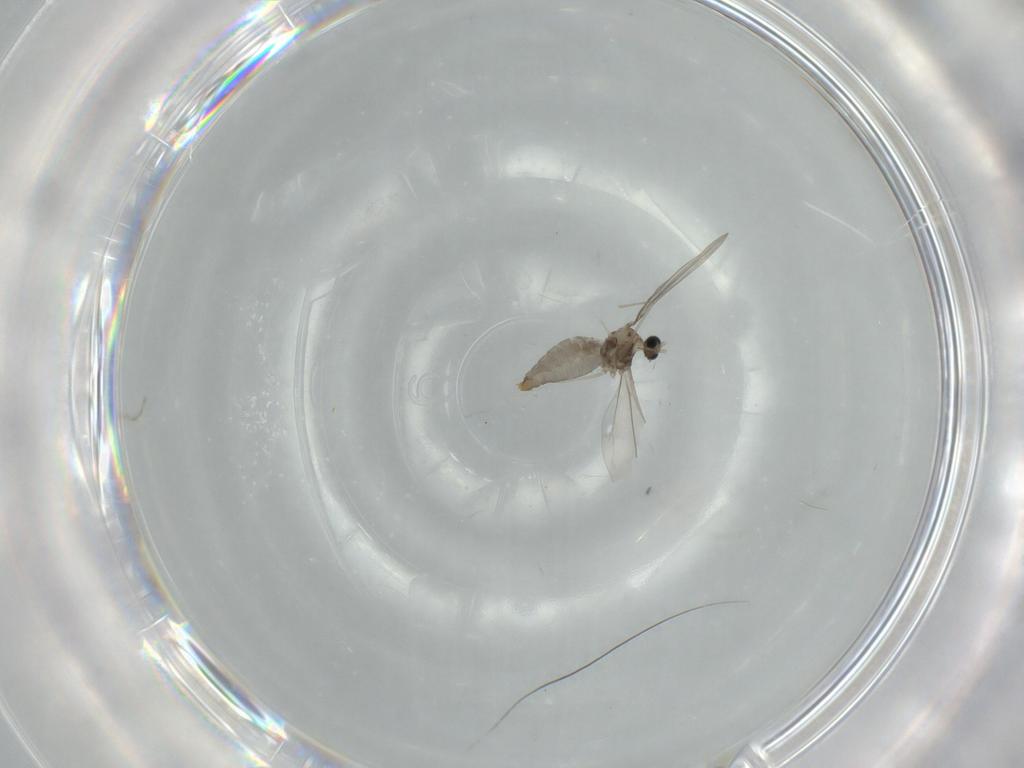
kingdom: Animalia
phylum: Arthropoda
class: Insecta
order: Diptera
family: Cecidomyiidae
